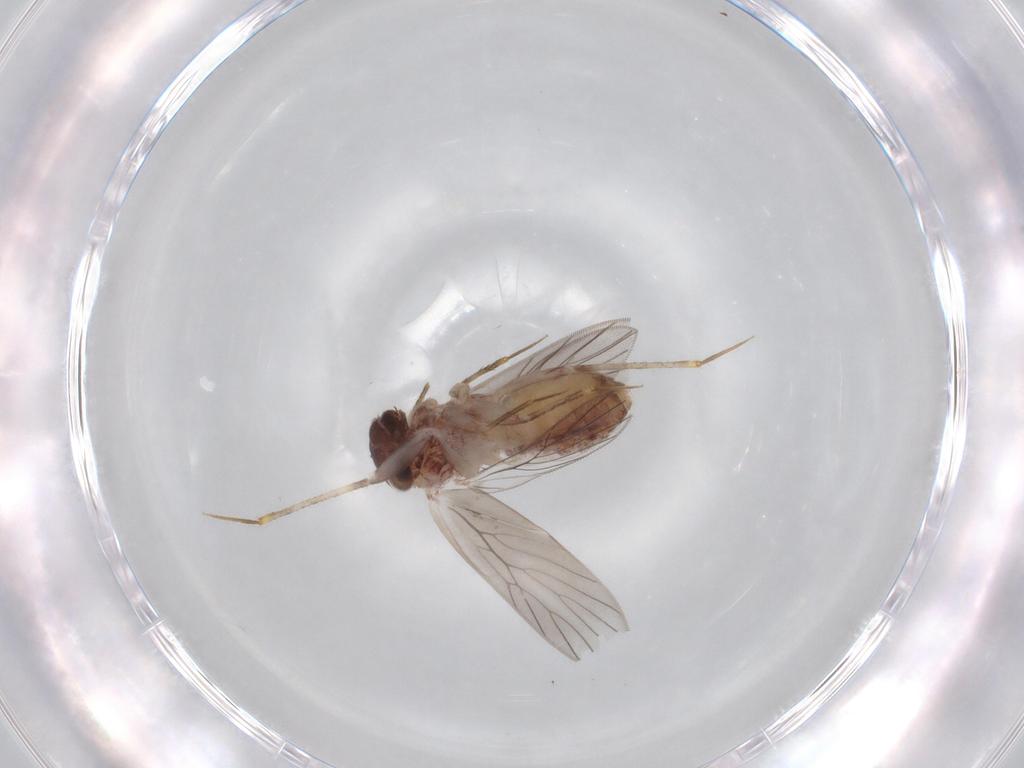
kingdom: Animalia
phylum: Arthropoda
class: Insecta
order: Psocodea
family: Lepidopsocidae
